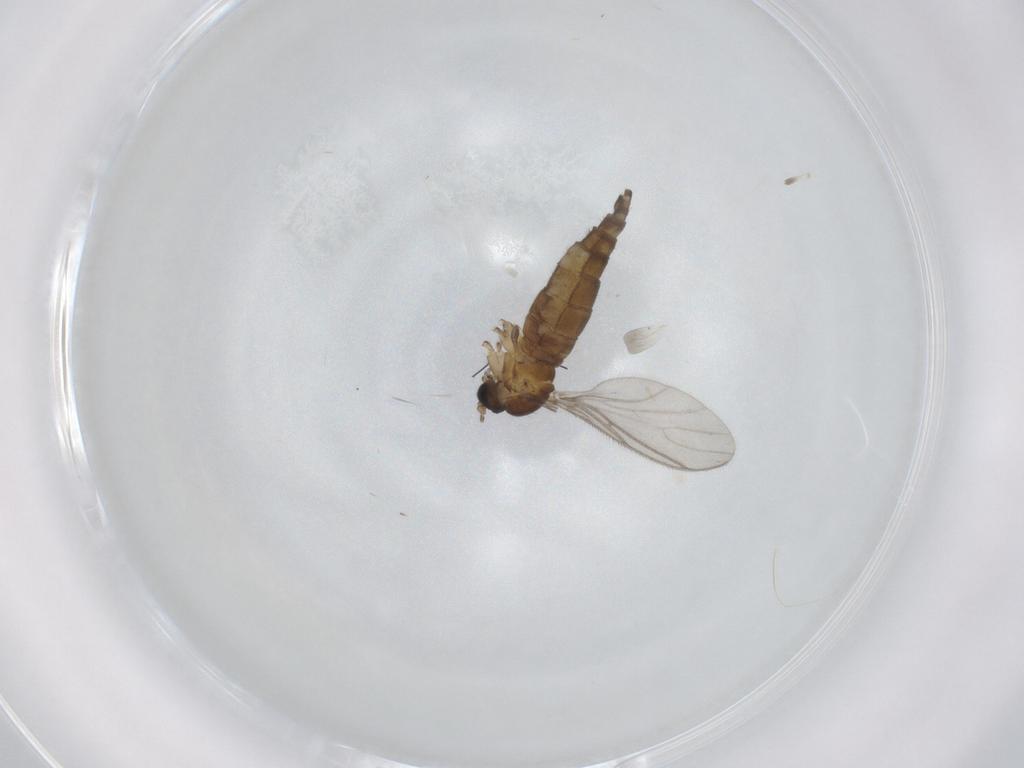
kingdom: Animalia
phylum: Arthropoda
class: Insecta
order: Diptera
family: Sciaridae
